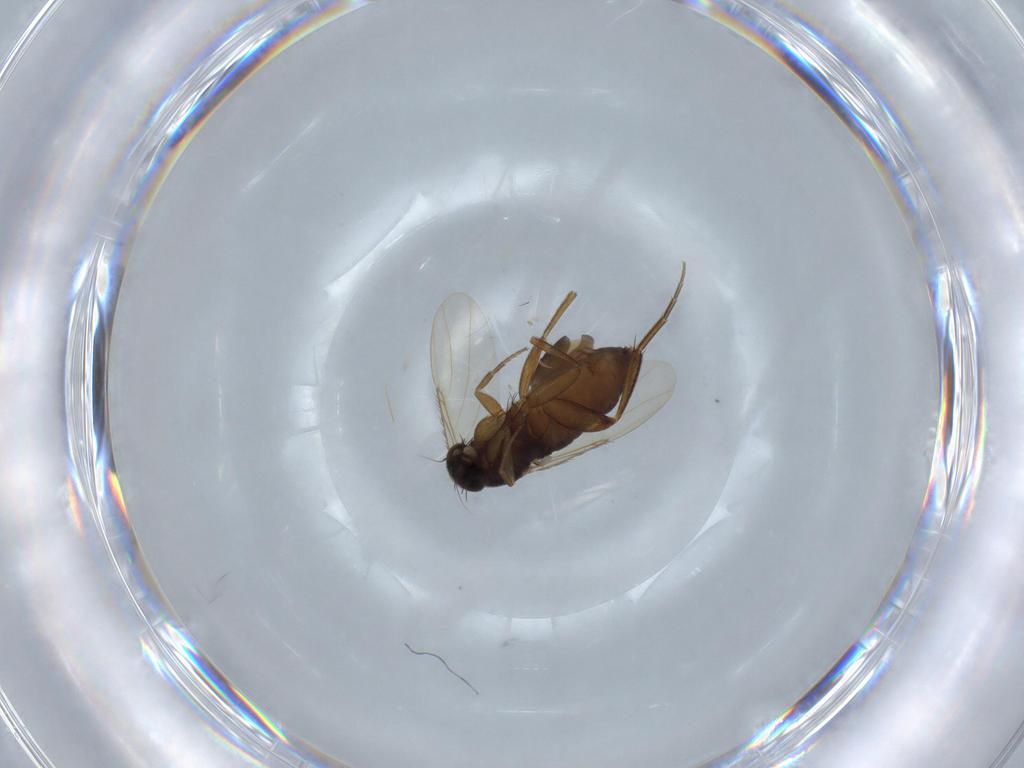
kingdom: Animalia
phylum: Arthropoda
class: Insecta
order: Diptera
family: Phoridae
